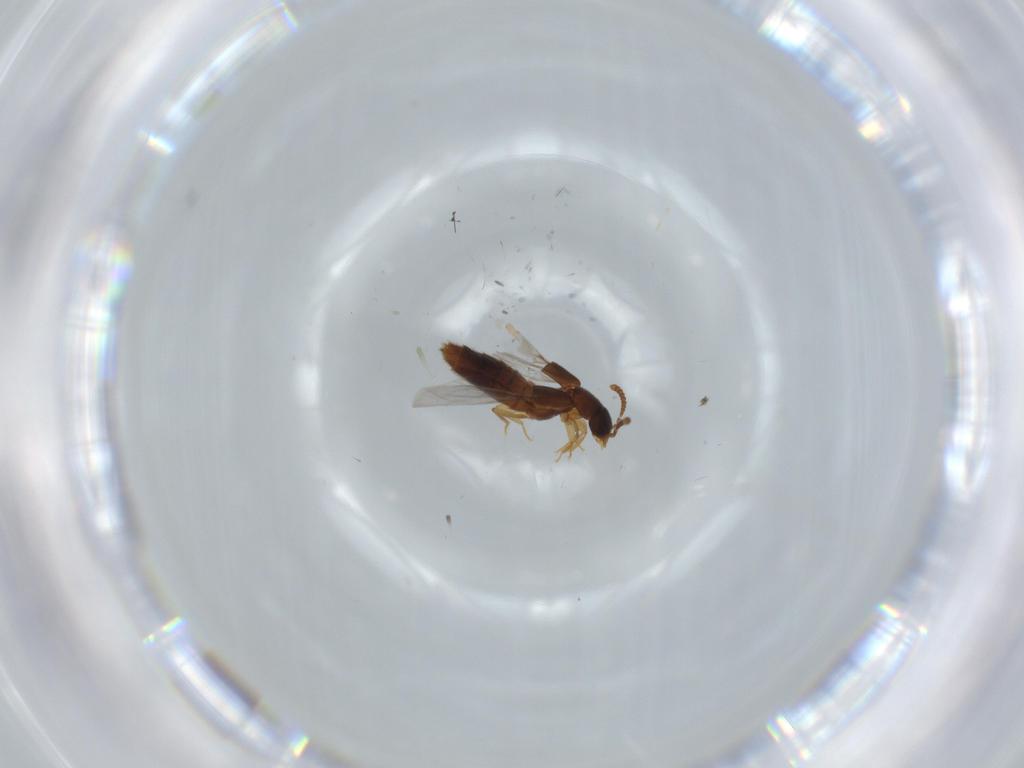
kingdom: Animalia
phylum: Arthropoda
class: Insecta
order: Coleoptera
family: Staphylinidae
